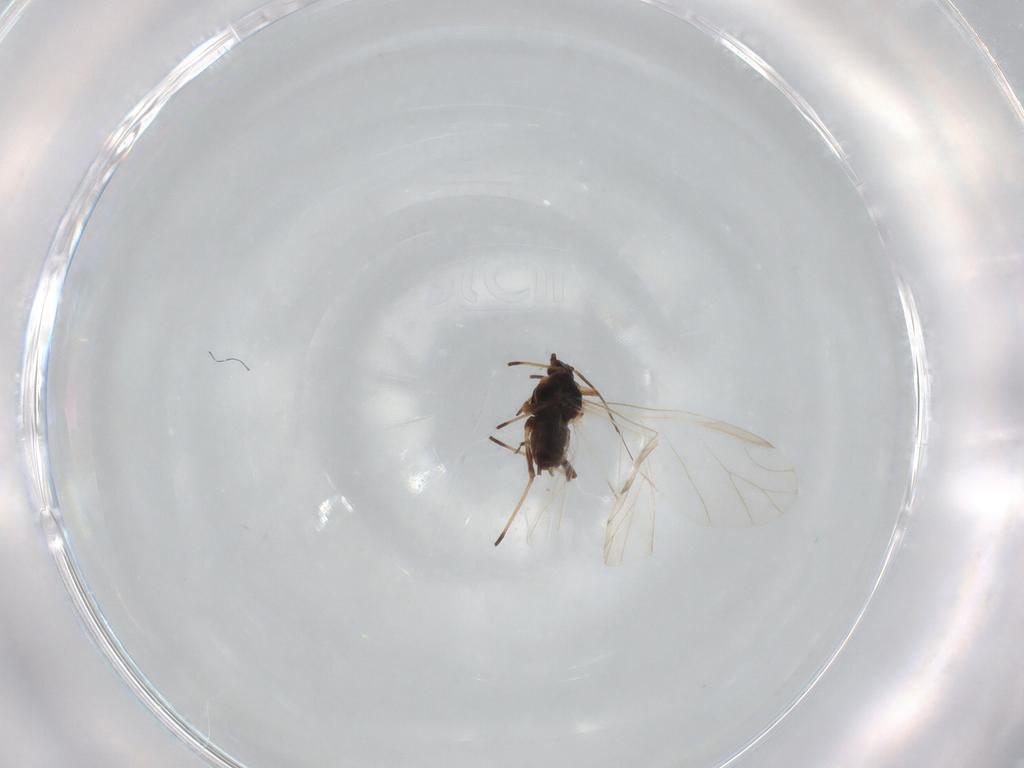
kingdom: Animalia
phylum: Arthropoda
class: Insecta
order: Hemiptera
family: Aphididae
